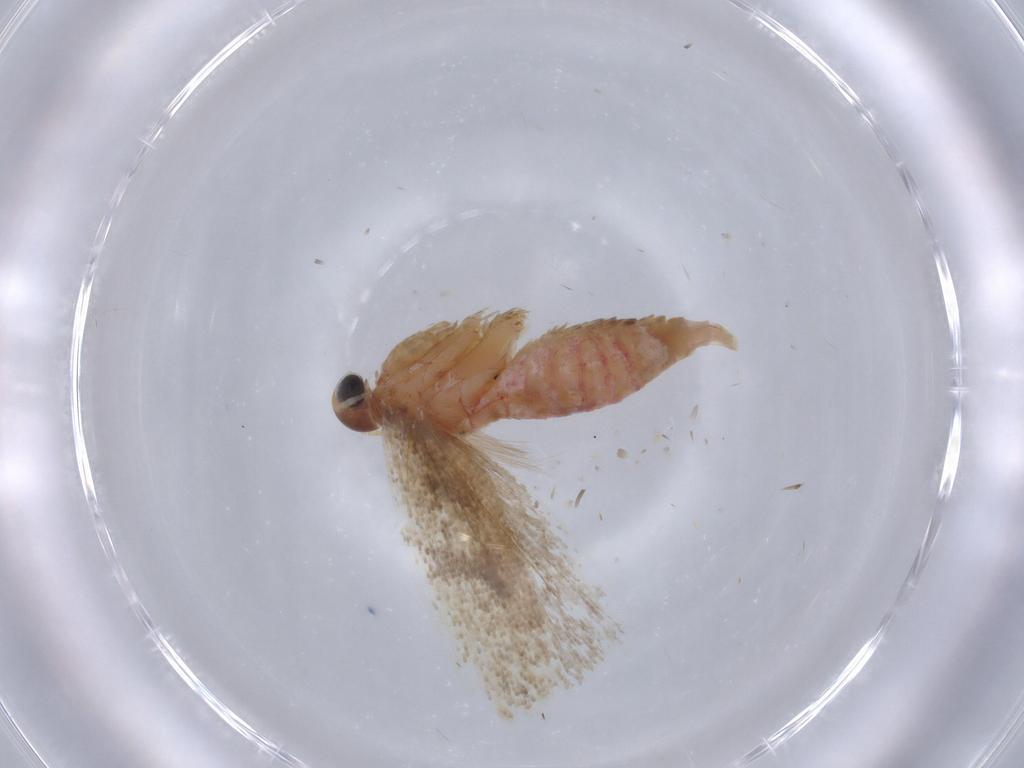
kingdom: Animalia
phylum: Arthropoda
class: Insecta
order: Lepidoptera
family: Gelechiidae
